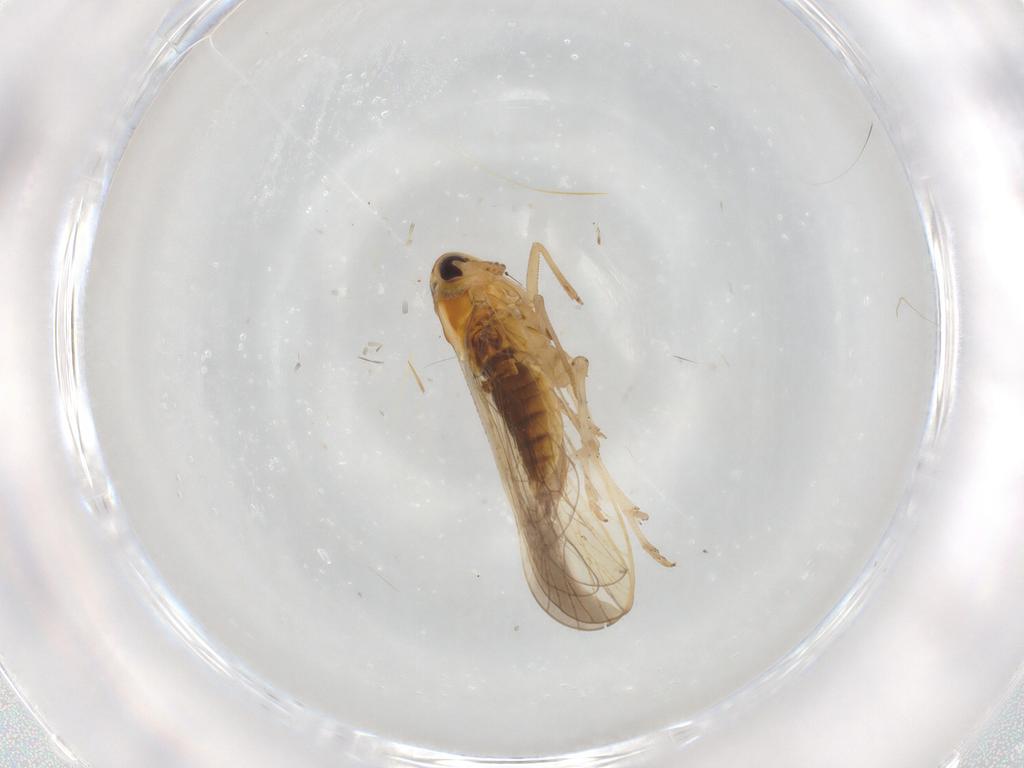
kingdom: Animalia
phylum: Arthropoda
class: Insecta
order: Hemiptera
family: Delphacidae
